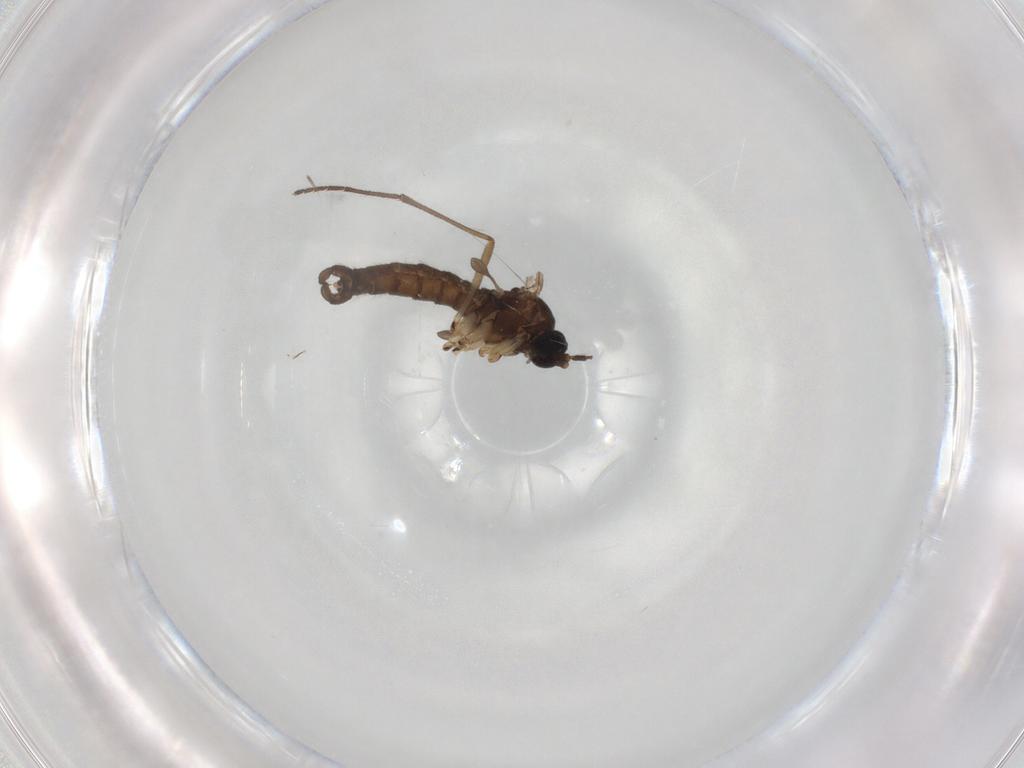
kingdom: Animalia
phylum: Arthropoda
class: Insecta
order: Diptera
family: Sciaridae
